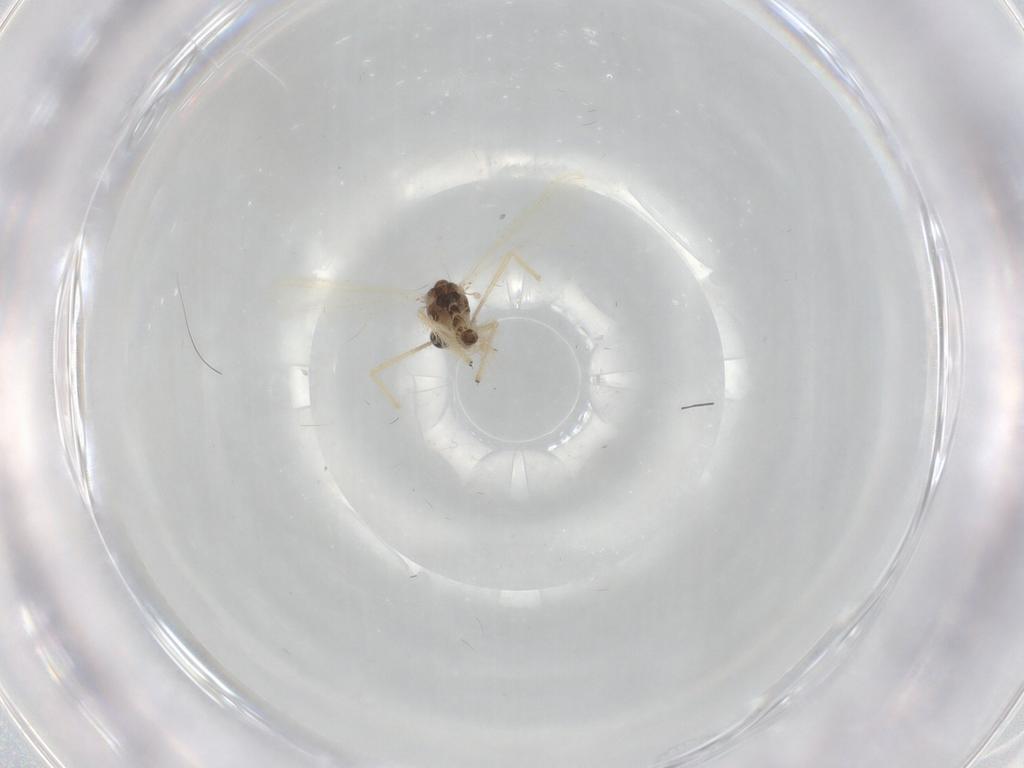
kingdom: Animalia
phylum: Arthropoda
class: Insecta
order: Diptera
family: Chironomidae
